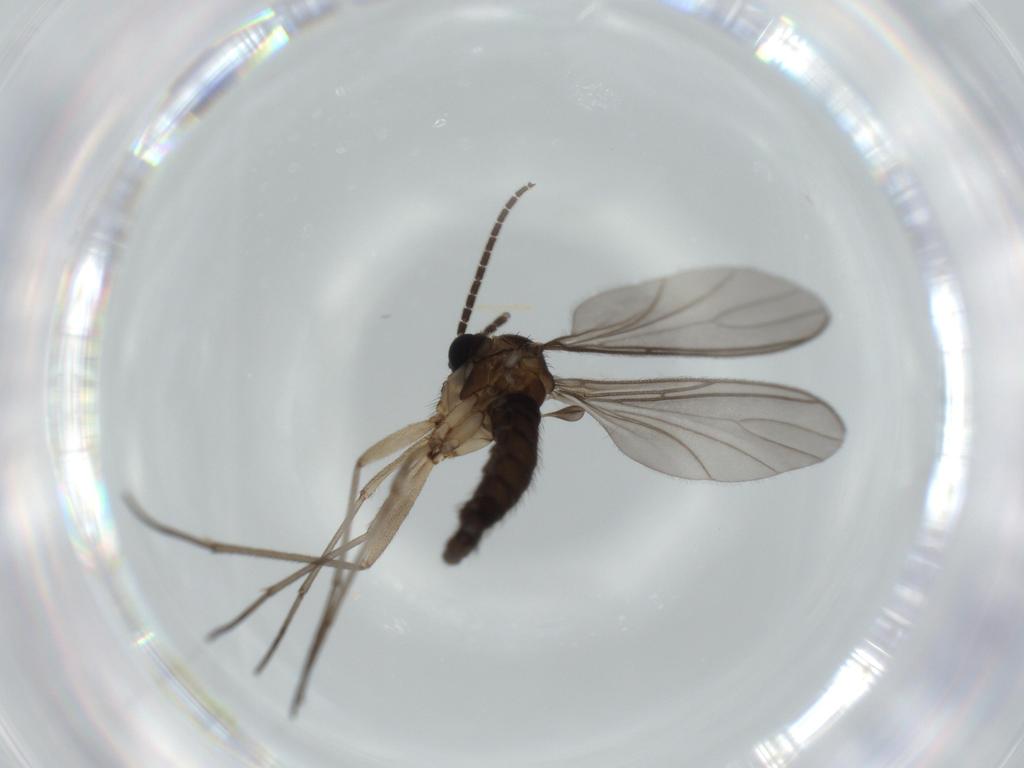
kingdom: Animalia
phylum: Arthropoda
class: Insecta
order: Diptera
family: Sciaridae
